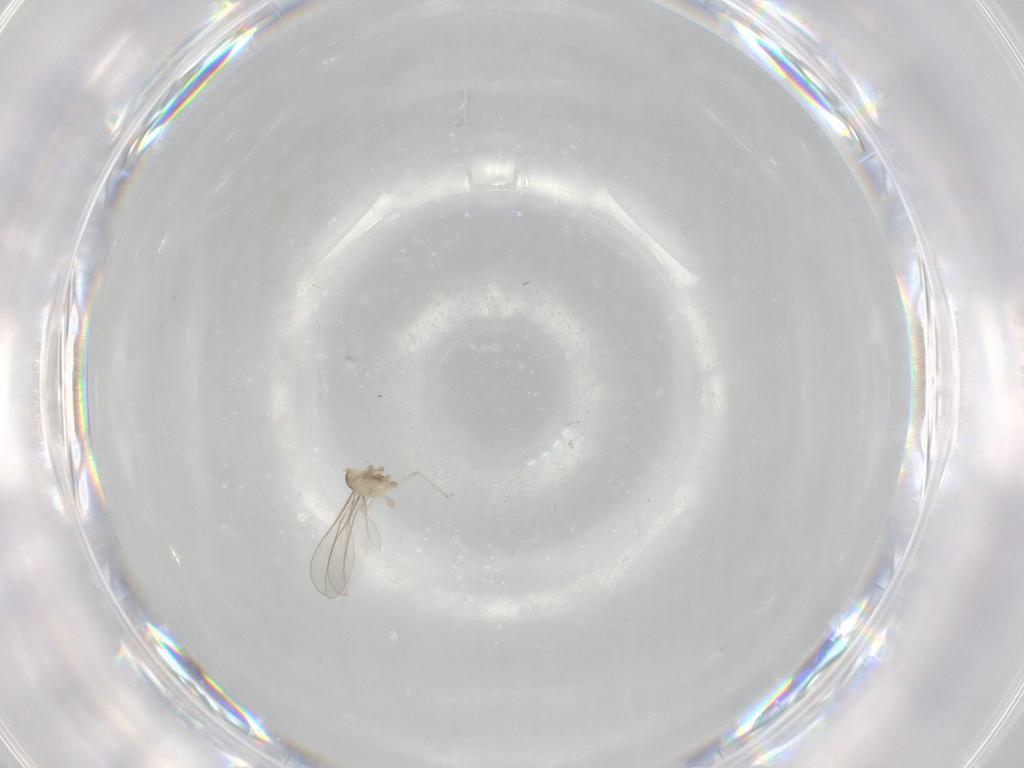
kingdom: Animalia
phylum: Arthropoda
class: Insecta
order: Diptera
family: Cecidomyiidae
